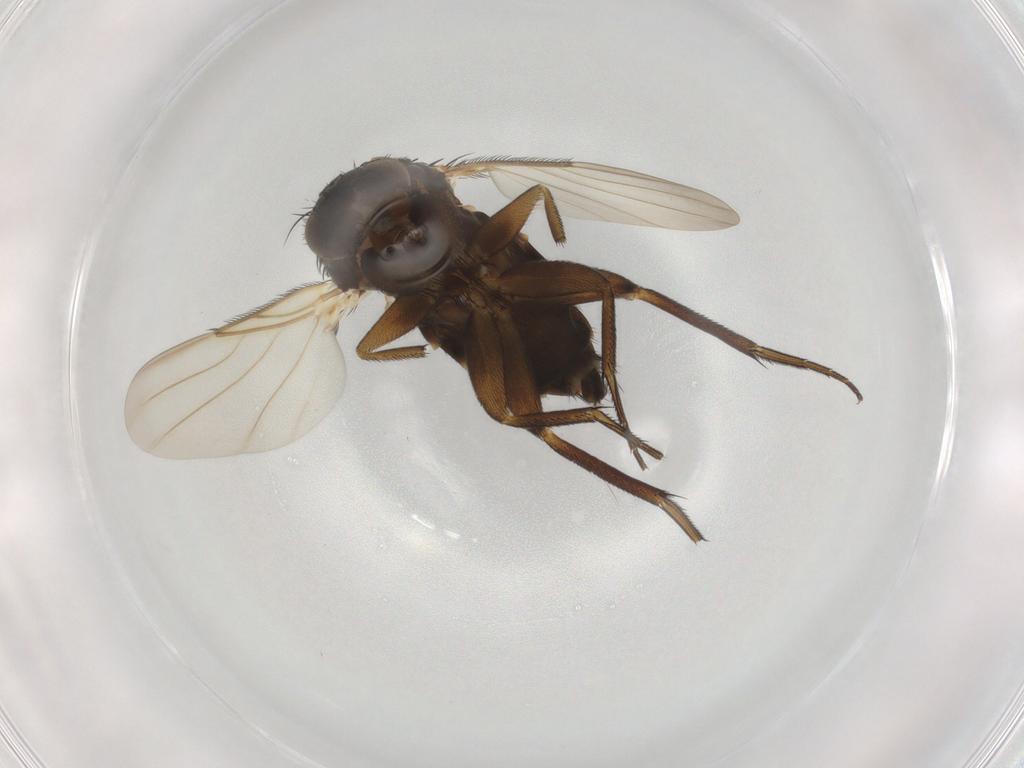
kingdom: Animalia
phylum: Arthropoda
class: Insecta
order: Diptera
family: Phoridae
